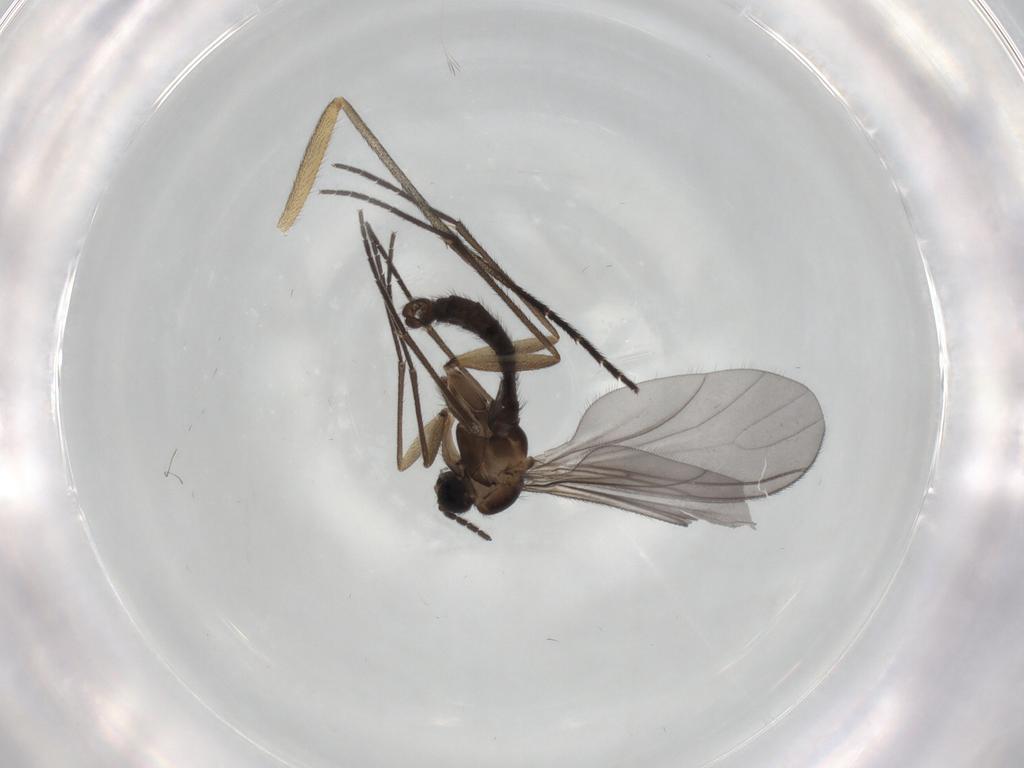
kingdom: Animalia
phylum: Arthropoda
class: Insecta
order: Diptera
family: Sciaridae
